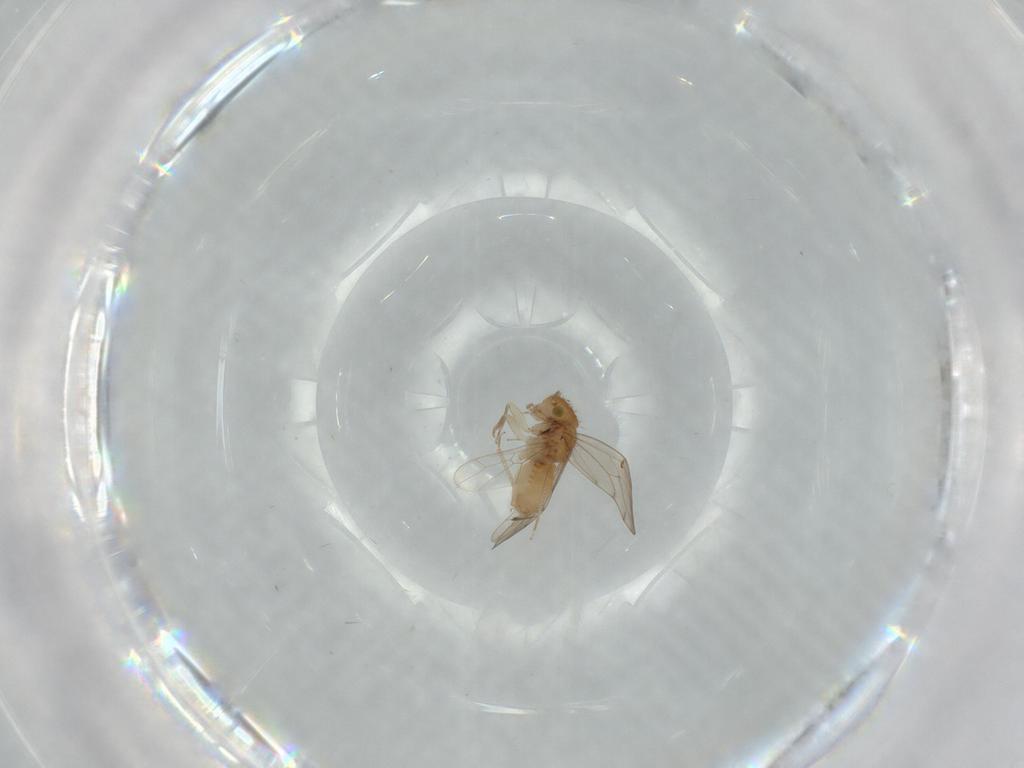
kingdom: Animalia
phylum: Arthropoda
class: Insecta
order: Psocodea
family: Ectopsocidae
